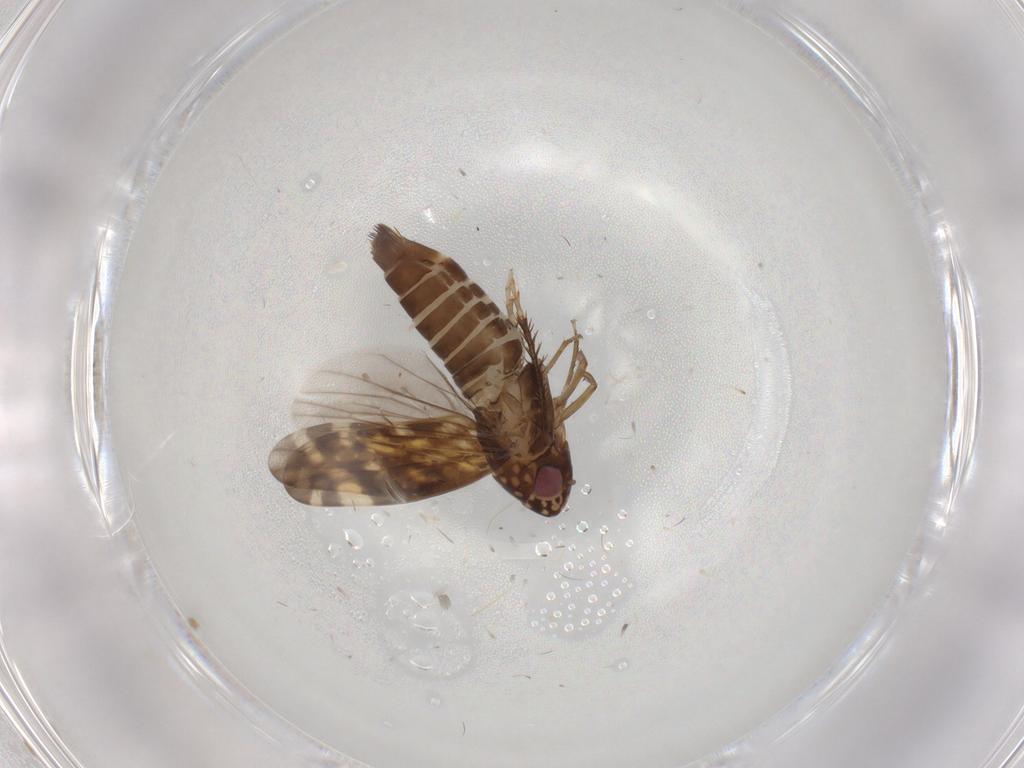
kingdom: Animalia
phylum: Arthropoda
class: Insecta
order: Hemiptera
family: Cicadellidae
